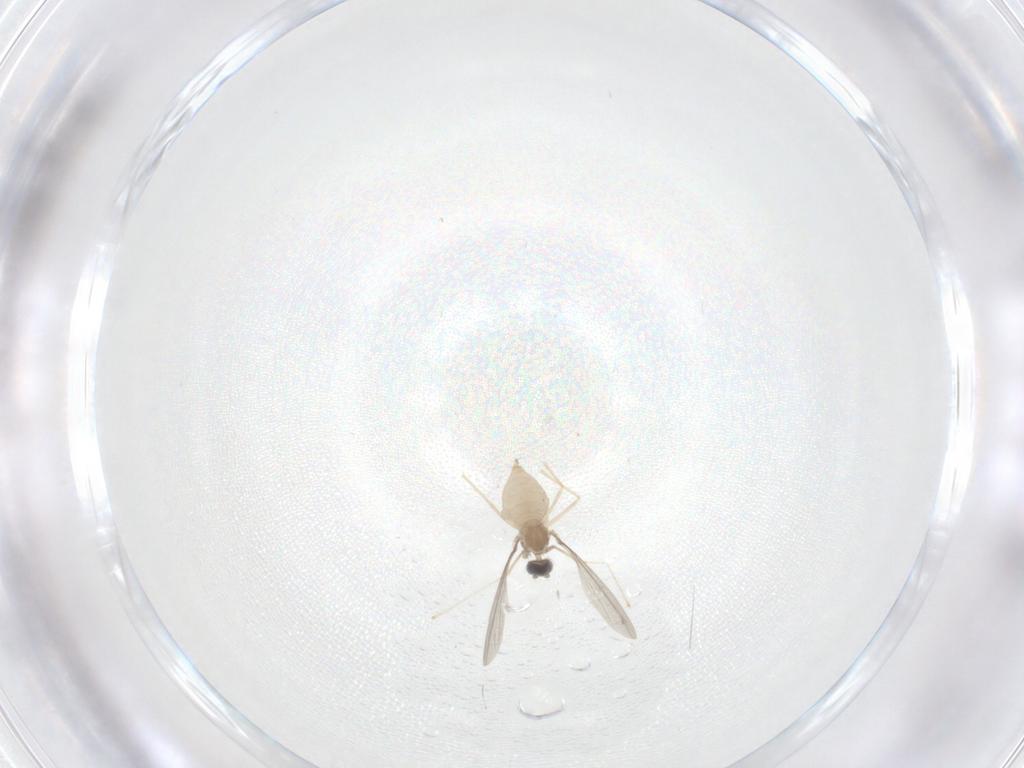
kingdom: Animalia
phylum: Arthropoda
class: Insecta
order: Diptera
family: Cecidomyiidae
